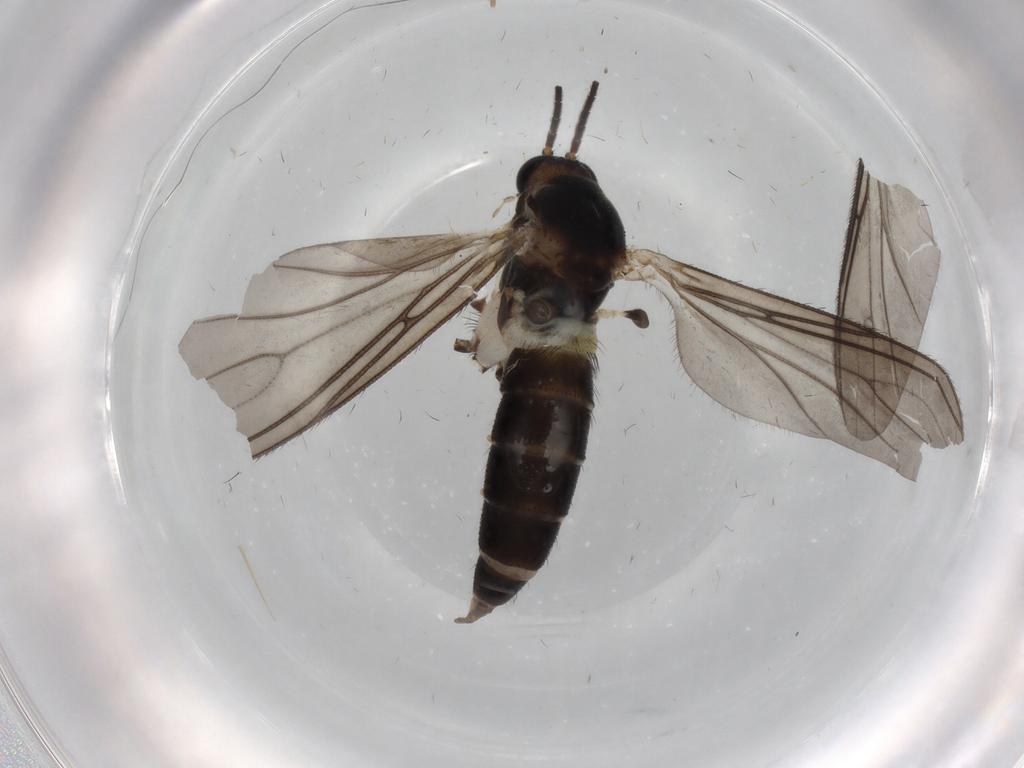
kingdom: Animalia
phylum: Arthropoda
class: Insecta
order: Diptera
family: Sciaridae
